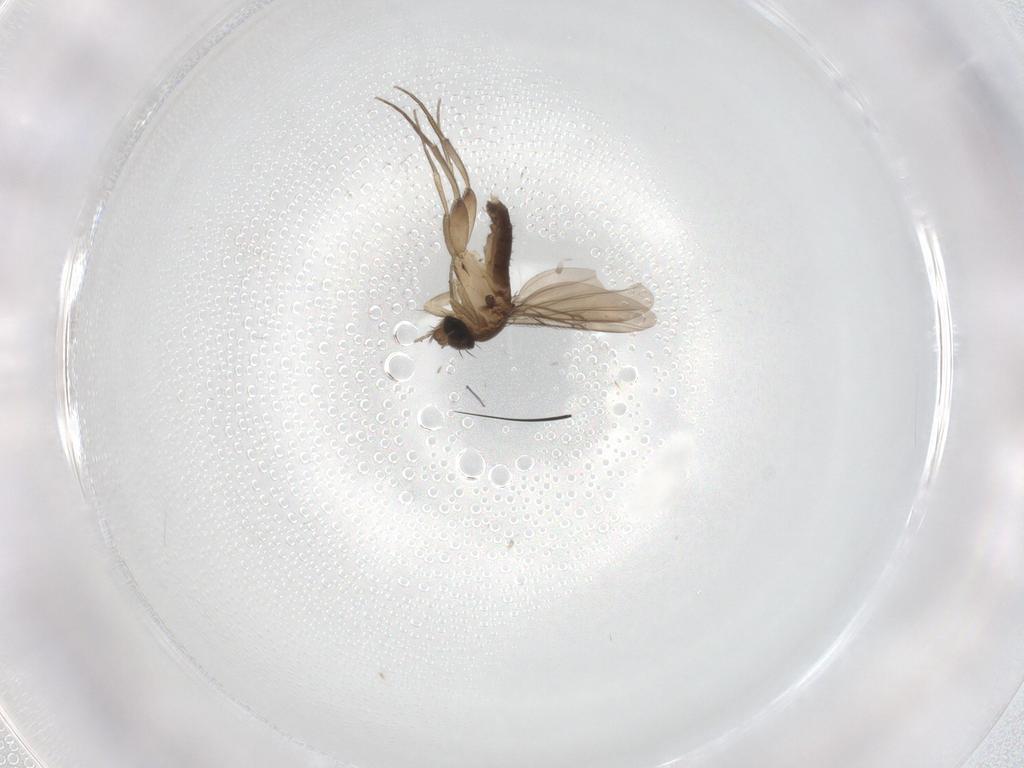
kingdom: Animalia
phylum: Arthropoda
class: Insecta
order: Diptera
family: Phoridae
